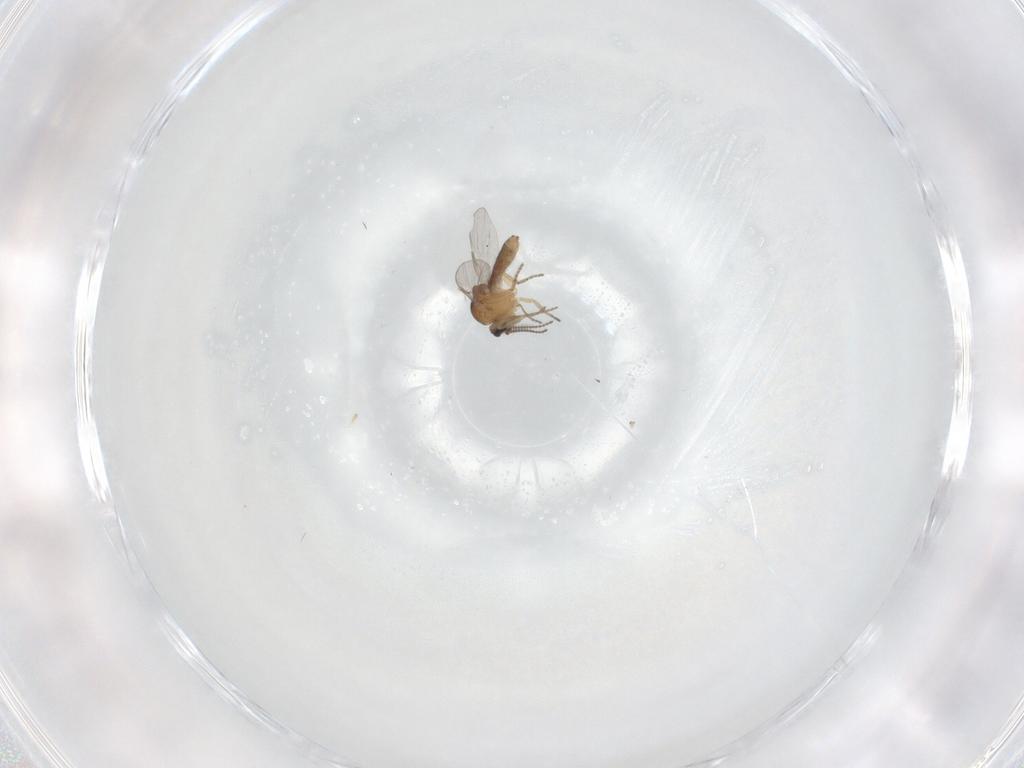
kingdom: Animalia
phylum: Arthropoda
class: Insecta
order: Diptera
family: Ceratopogonidae
